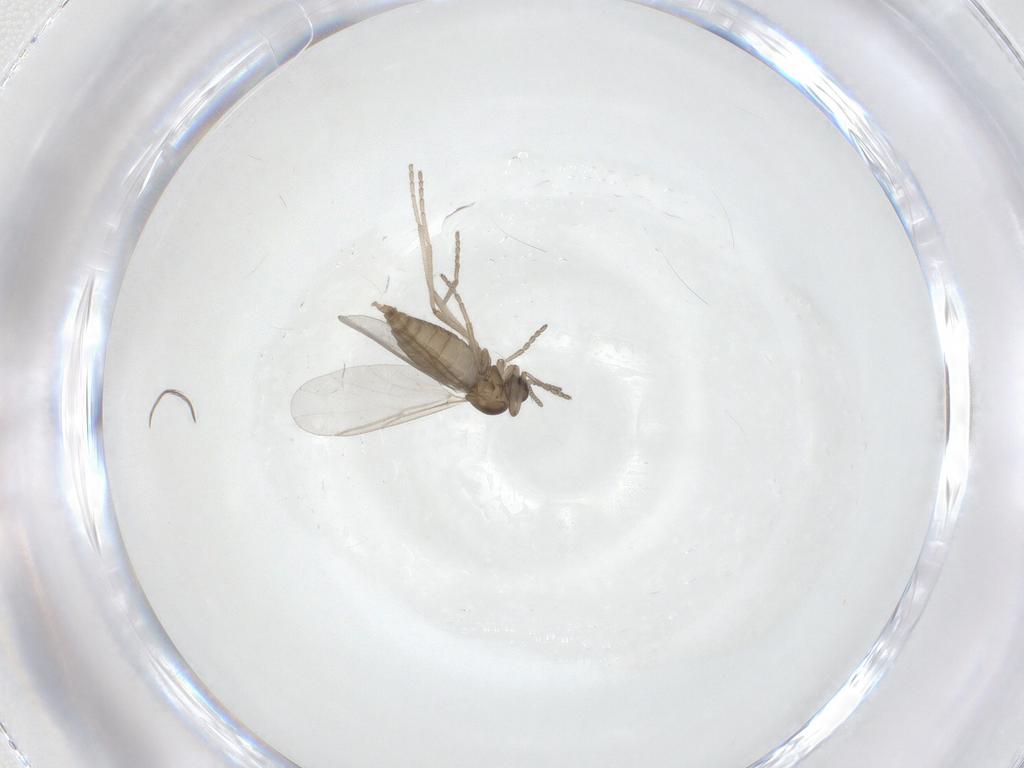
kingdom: Animalia
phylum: Arthropoda
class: Insecta
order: Diptera
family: Cecidomyiidae
